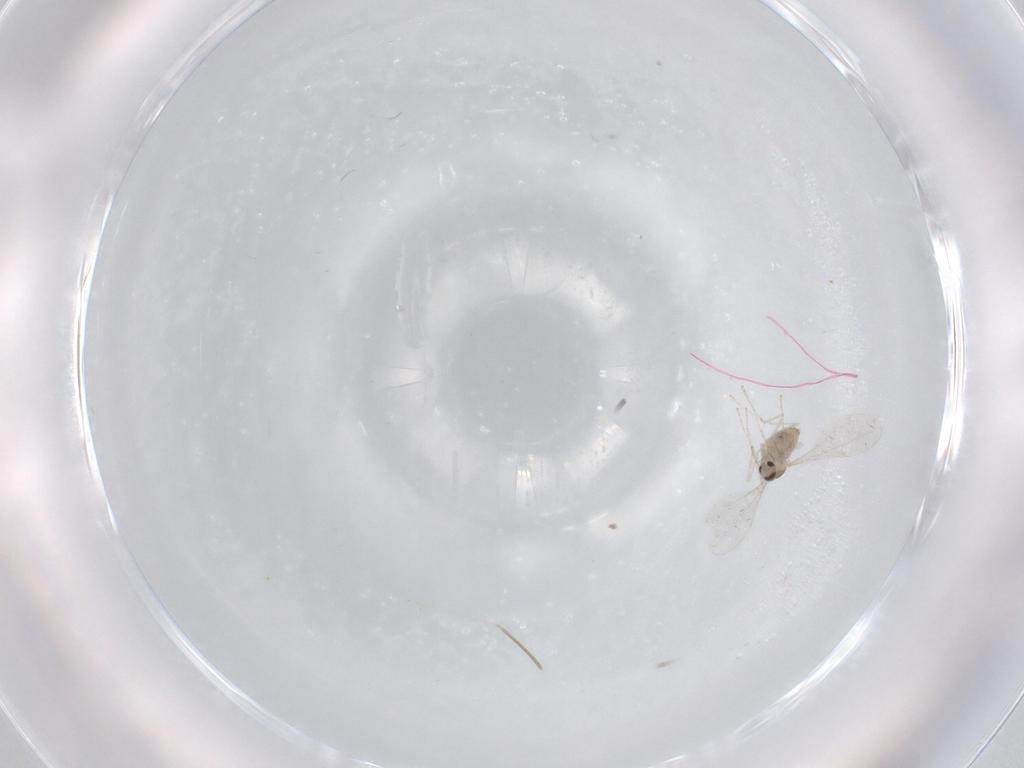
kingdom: Animalia
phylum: Arthropoda
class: Insecta
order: Diptera
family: Cecidomyiidae
